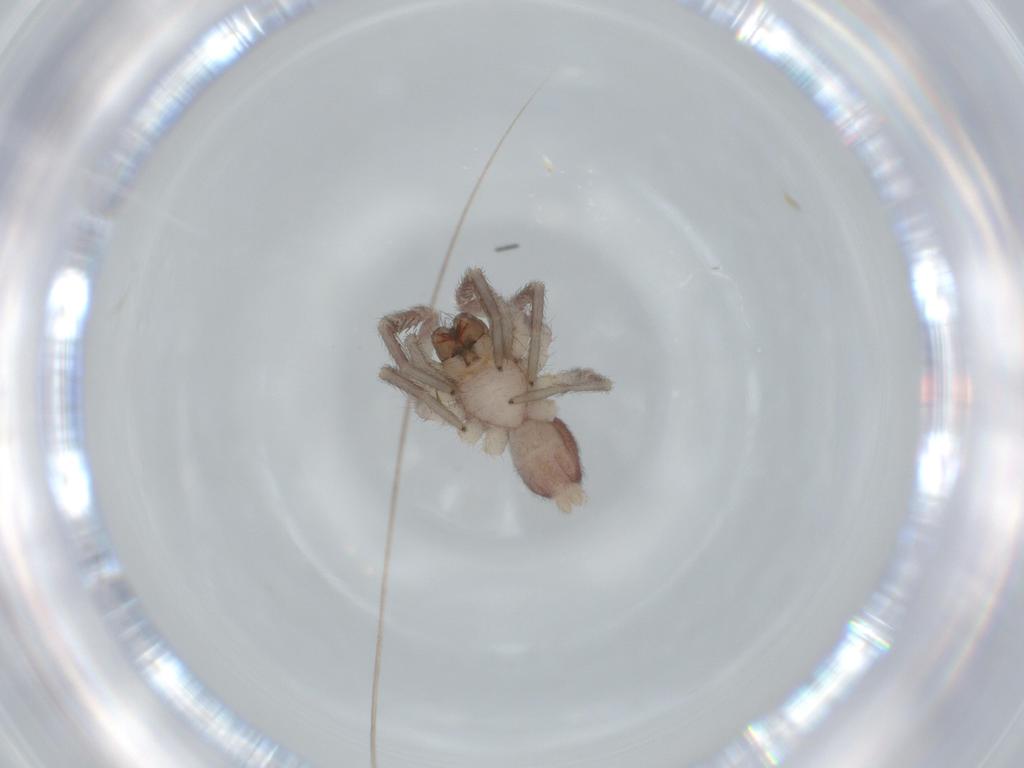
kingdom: Animalia
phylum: Arthropoda
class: Arachnida
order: Araneae
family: Corinnidae
